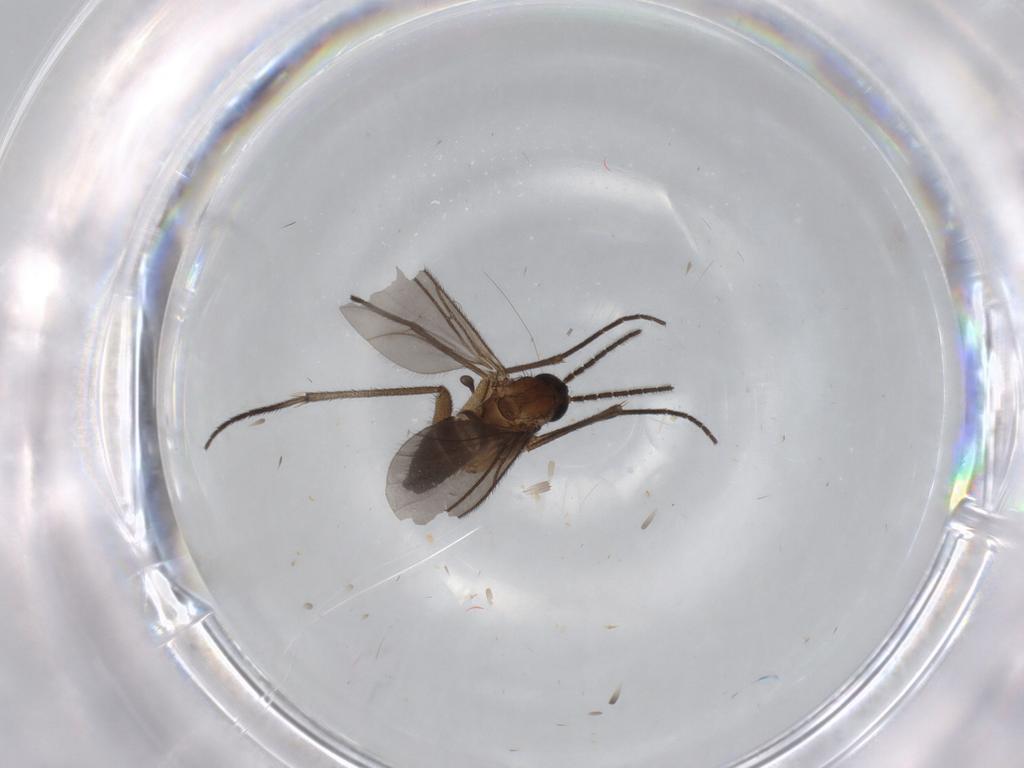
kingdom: Animalia
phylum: Arthropoda
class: Insecta
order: Diptera
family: Sciaridae
